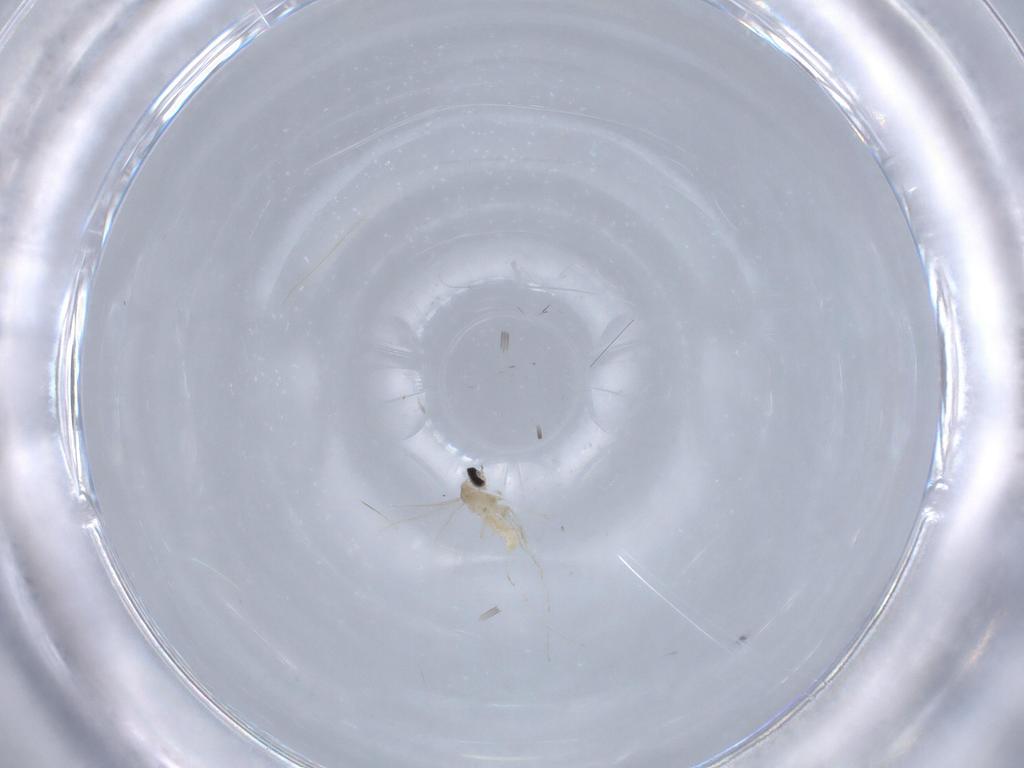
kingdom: Animalia
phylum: Arthropoda
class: Insecta
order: Diptera
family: Cecidomyiidae
